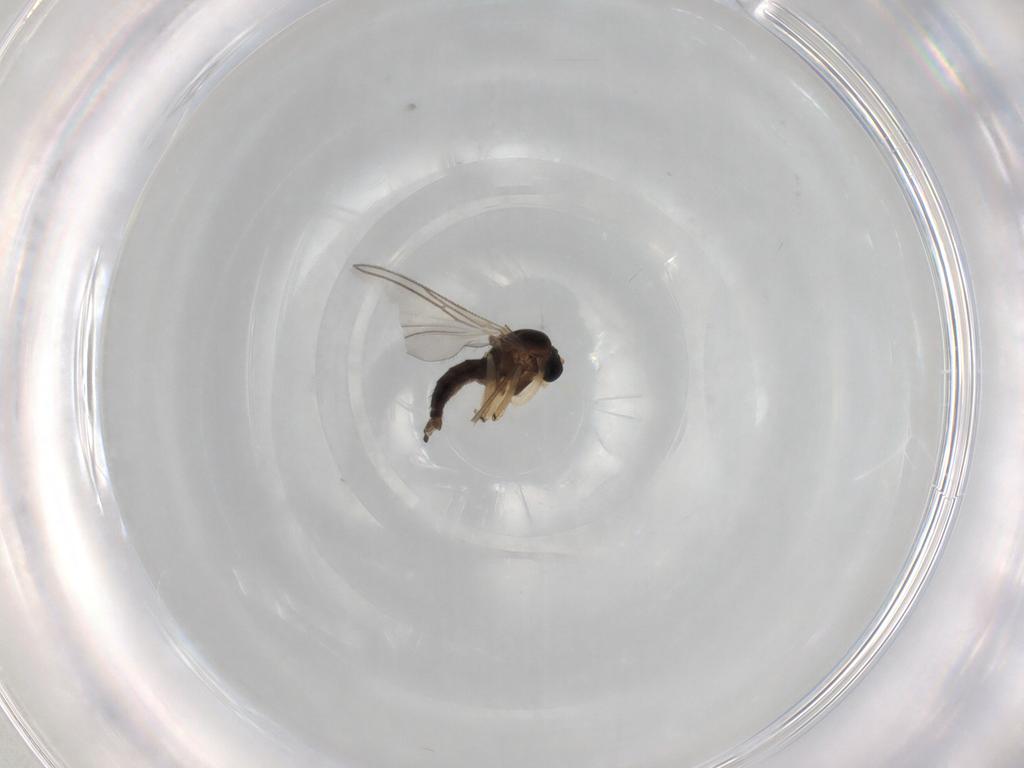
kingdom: Animalia
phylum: Arthropoda
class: Insecta
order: Diptera
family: Sciaridae
